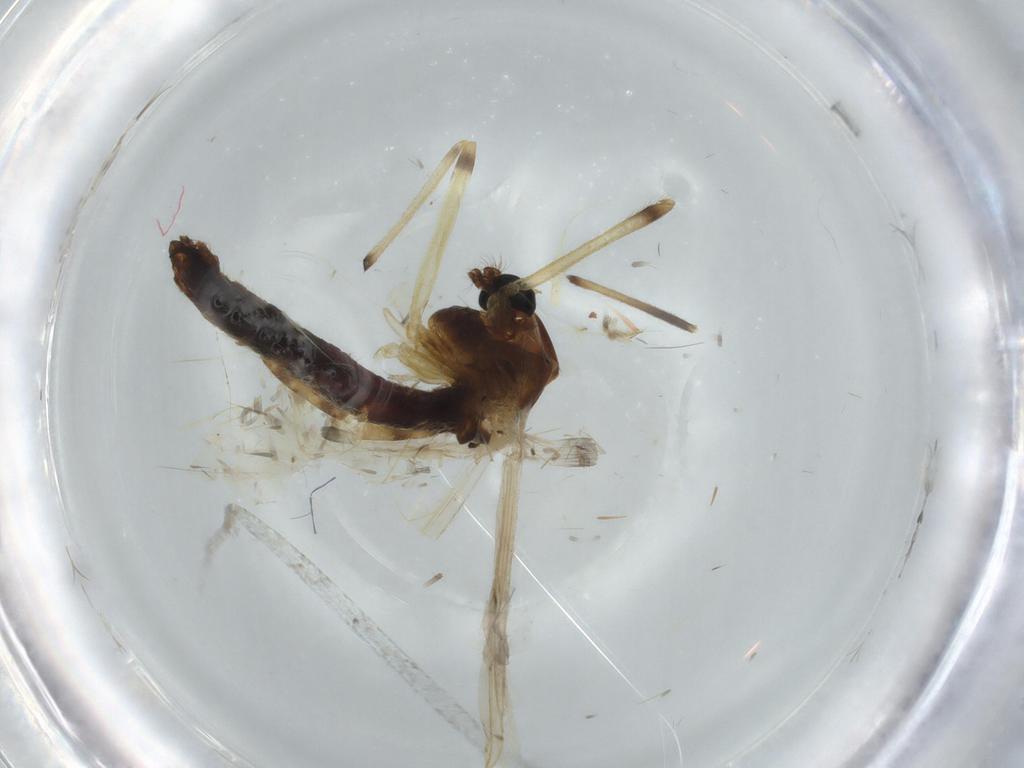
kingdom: Animalia
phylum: Arthropoda
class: Insecta
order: Diptera
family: Chironomidae
